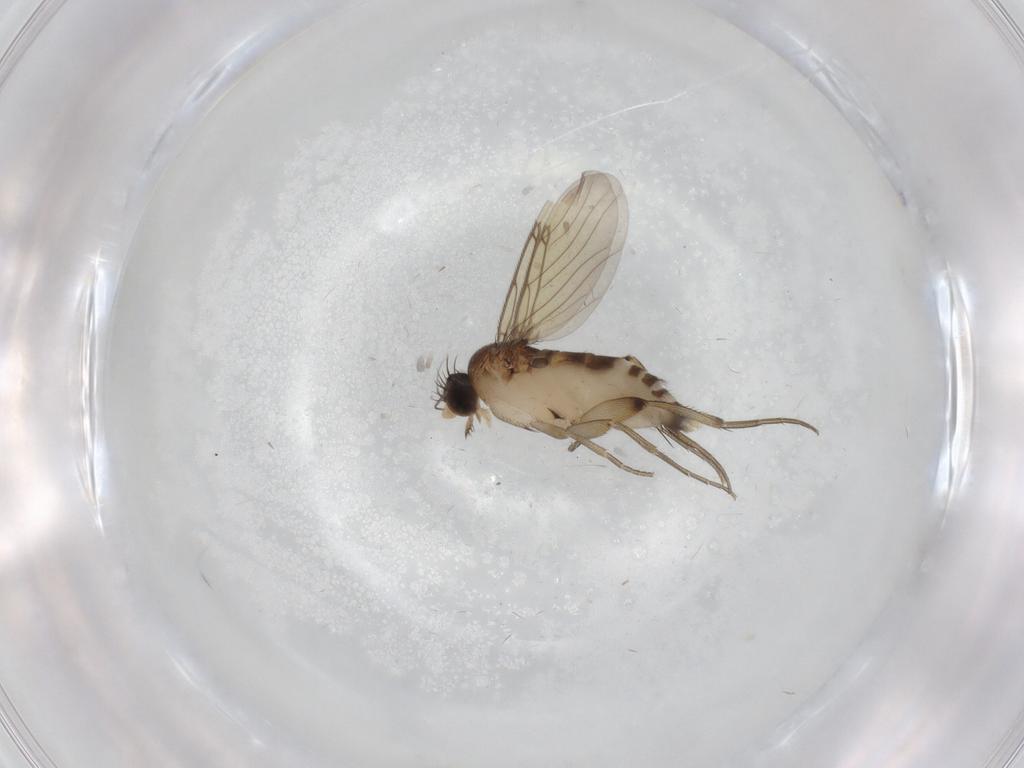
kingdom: Animalia
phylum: Arthropoda
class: Insecta
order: Diptera
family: Phoridae
